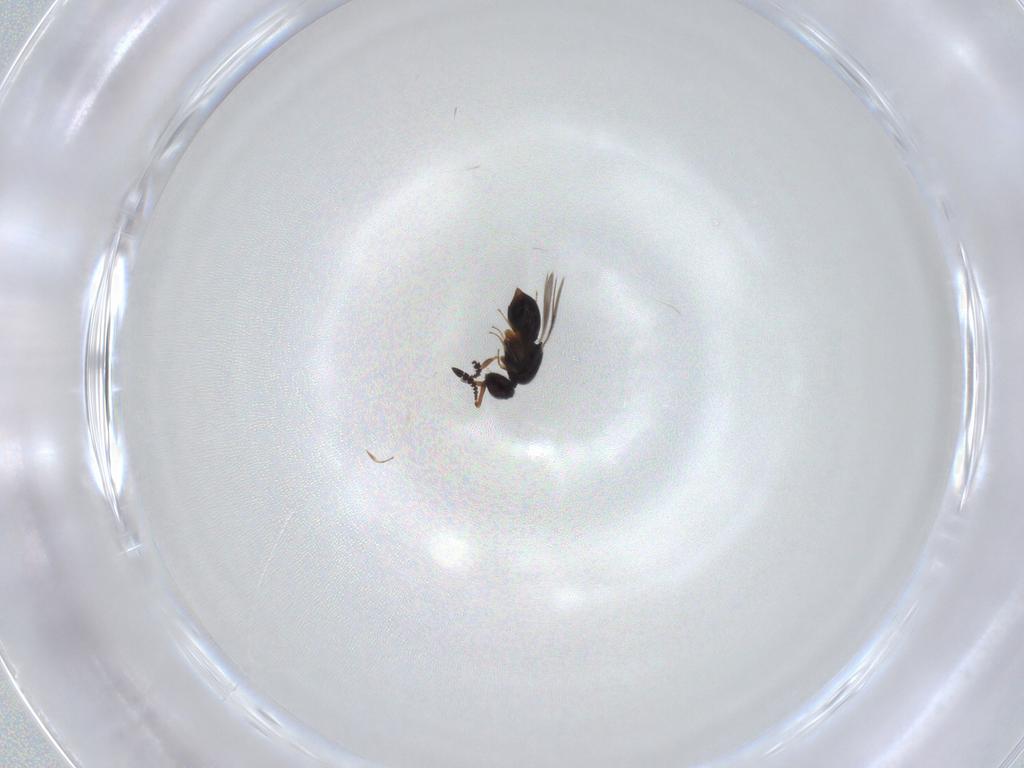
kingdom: Animalia
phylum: Arthropoda
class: Insecta
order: Hymenoptera
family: Ceraphronidae
